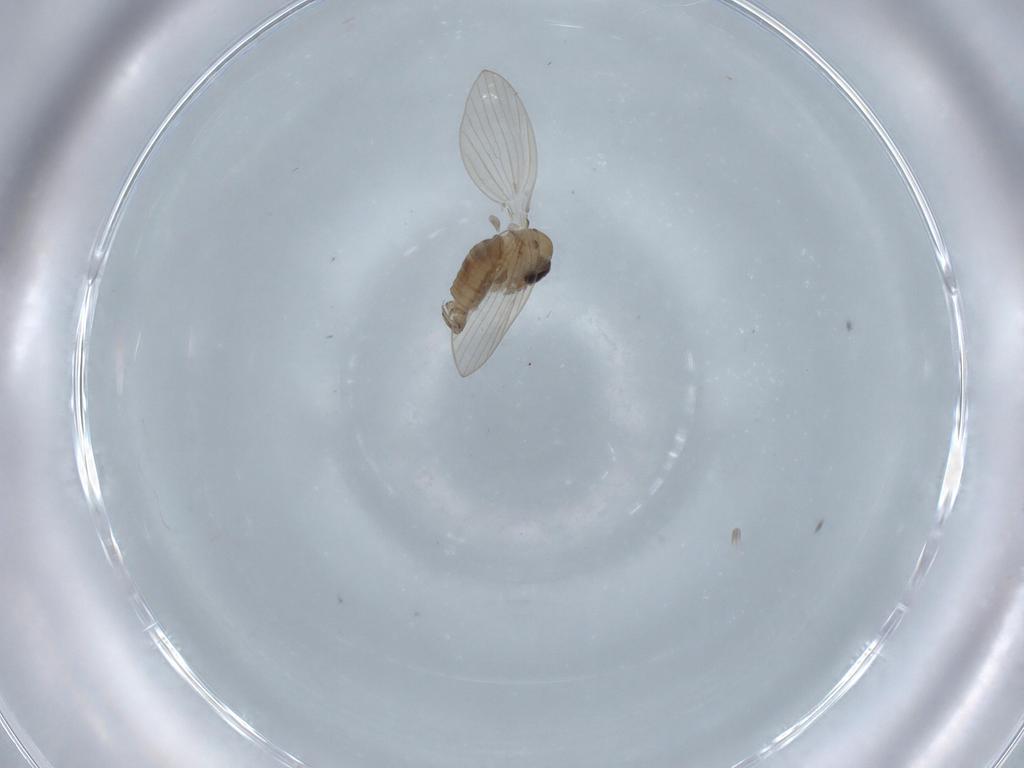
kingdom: Animalia
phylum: Arthropoda
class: Insecta
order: Diptera
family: Psychodidae
